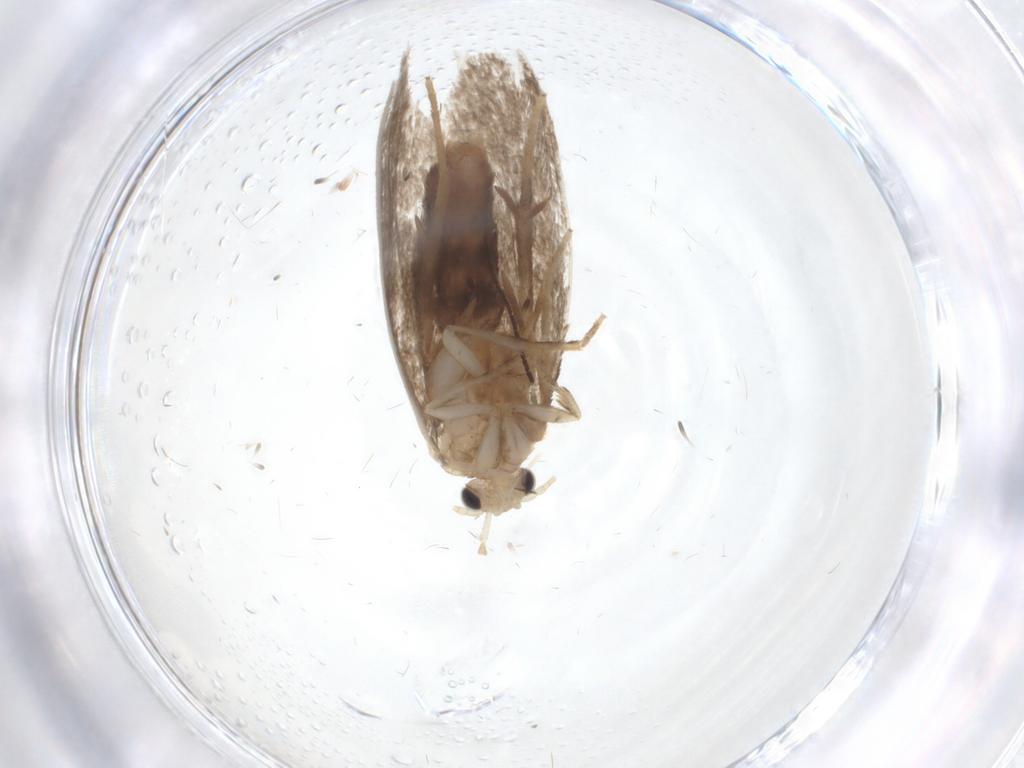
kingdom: Animalia
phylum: Arthropoda
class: Insecta
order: Lepidoptera
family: Dryadaulidae
